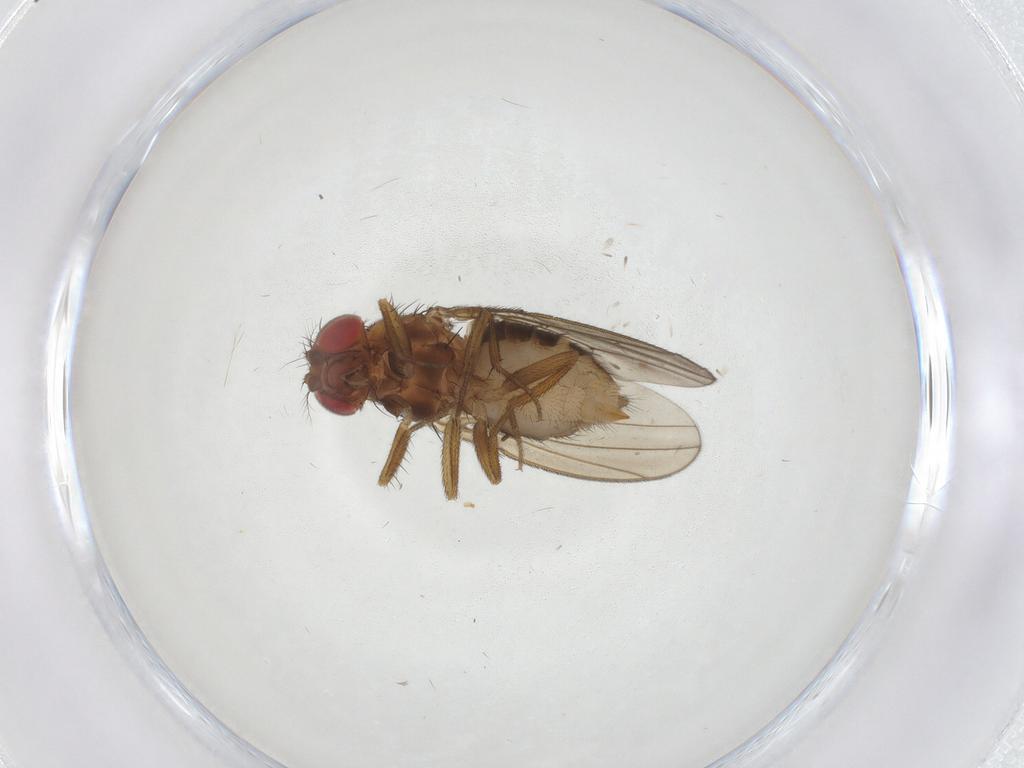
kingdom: Animalia
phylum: Arthropoda
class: Insecta
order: Diptera
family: Drosophilidae
